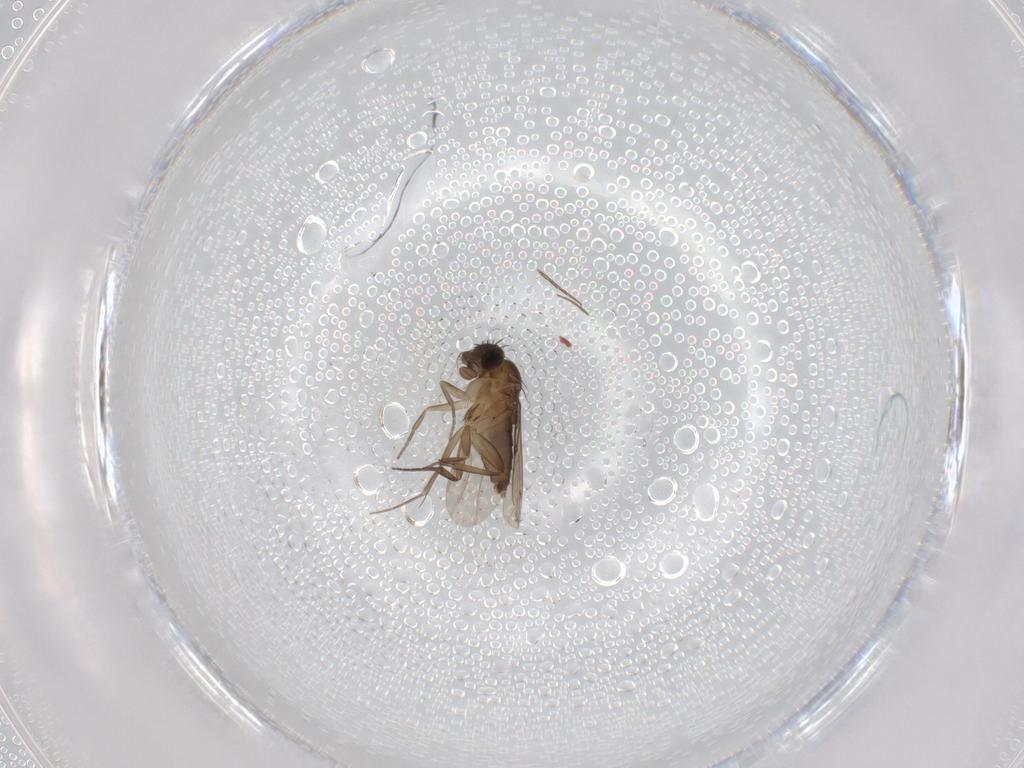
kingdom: Animalia
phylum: Arthropoda
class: Insecta
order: Diptera
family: Phoridae
